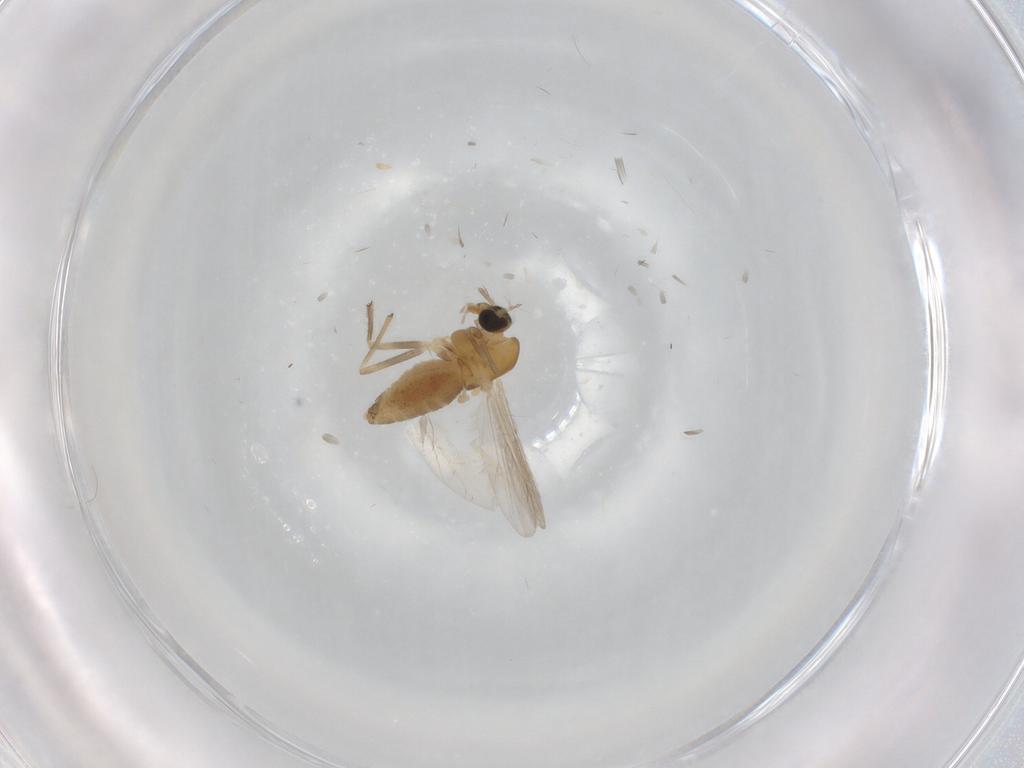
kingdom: Animalia
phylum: Arthropoda
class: Insecta
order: Diptera
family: Chironomidae
